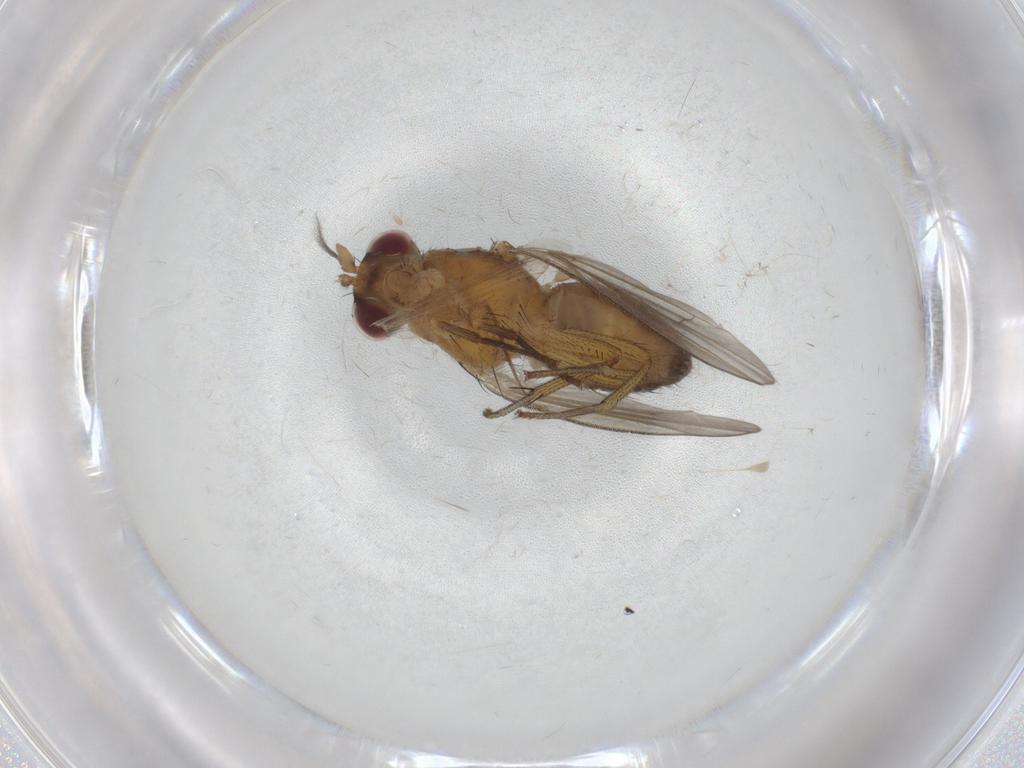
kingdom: Animalia
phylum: Arthropoda
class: Insecta
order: Diptera
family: Lauxaniidae
